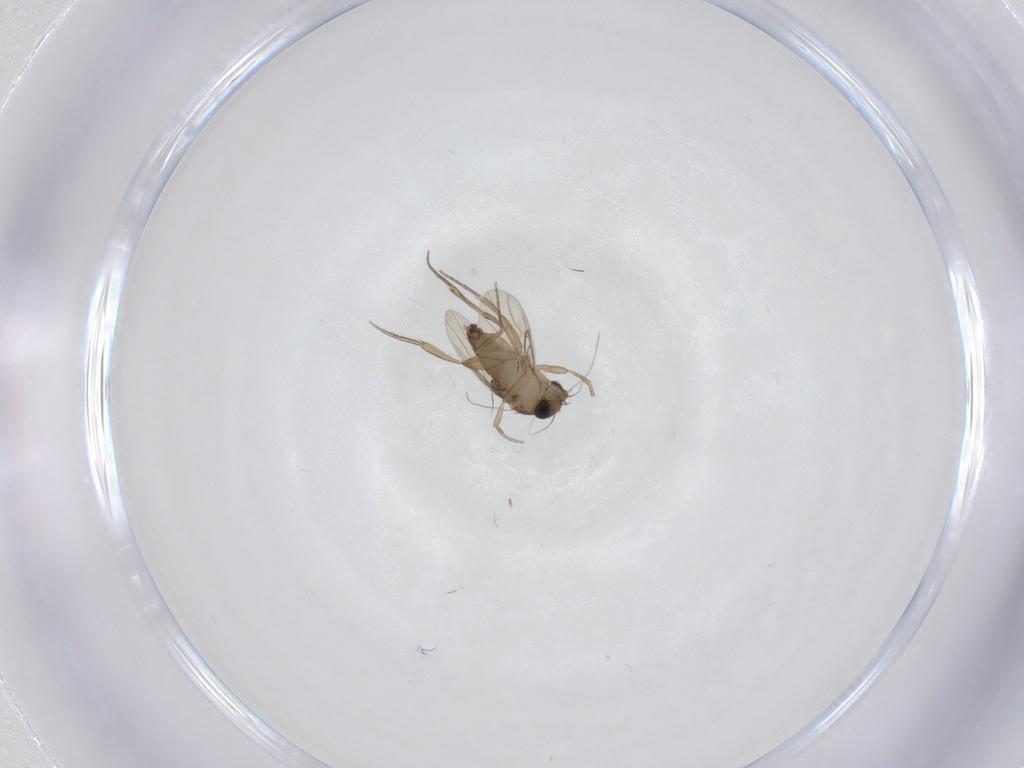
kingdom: Animalia
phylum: Arthropoda
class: Insecta
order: Diptera
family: Phoridae
